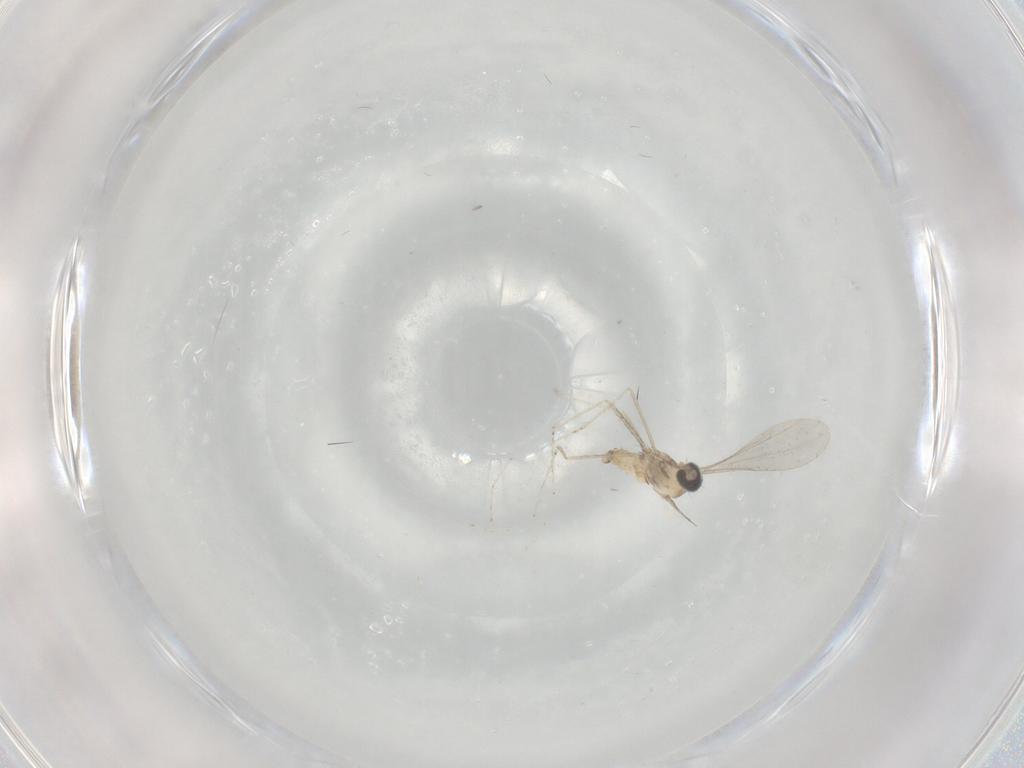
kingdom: Animalia
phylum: Arthropoda
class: Insecta
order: Diptera
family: Cecidomyiidae
